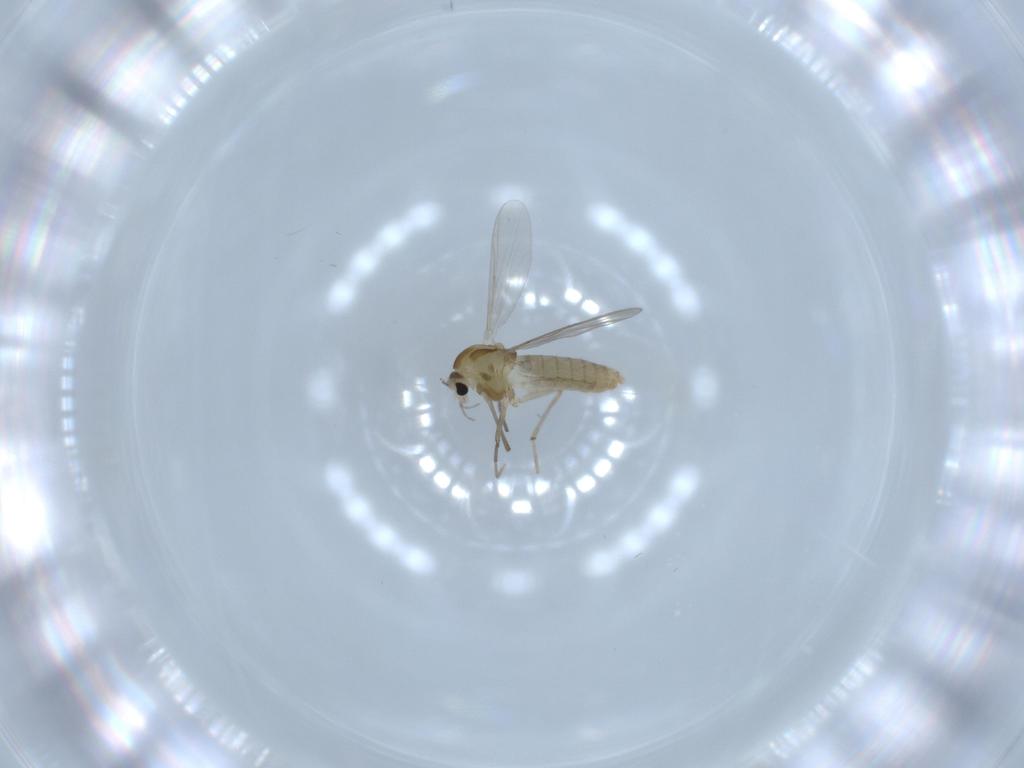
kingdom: Animalia
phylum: Arthropoda
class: Insecta
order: Diptera
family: Chironomidae
